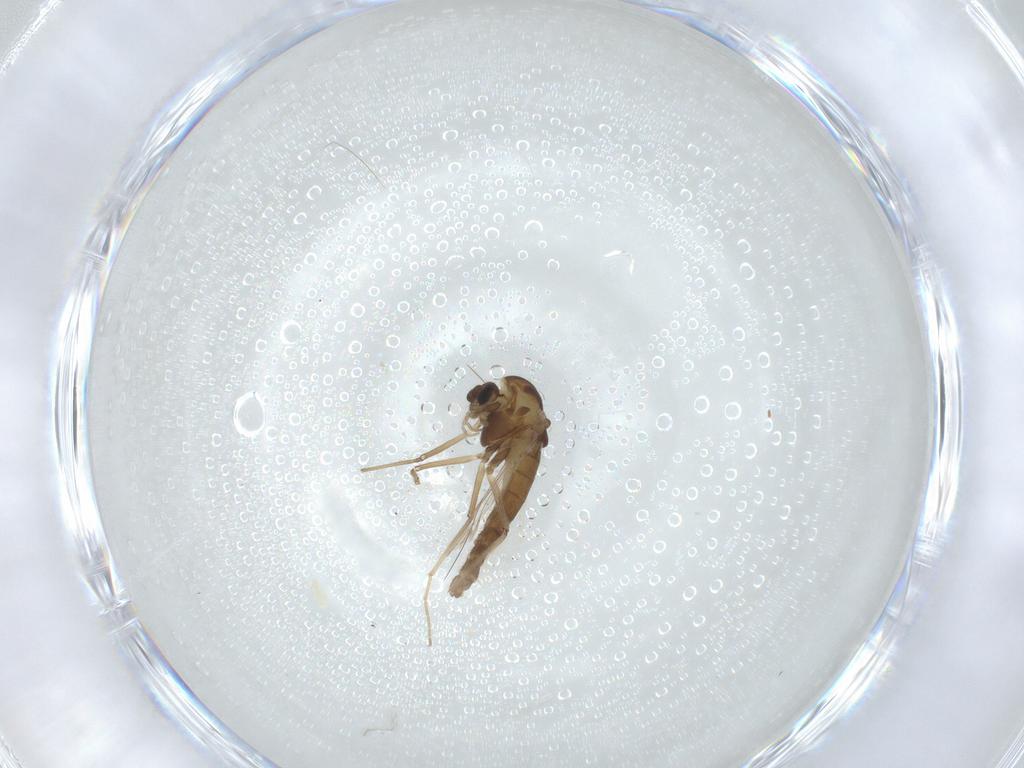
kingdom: Animalia
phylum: Arthropoda
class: Insecta
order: Diptera
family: Chironomidae
